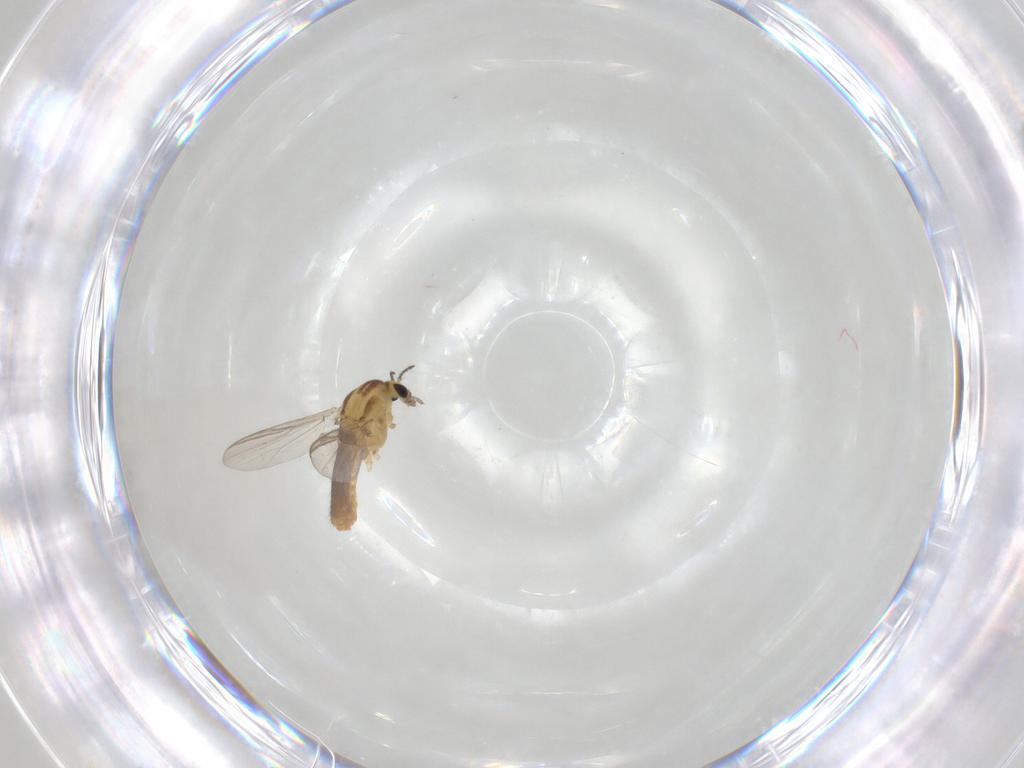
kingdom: Animalia
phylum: Arthropoda
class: Insecta
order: Diptera
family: Chironomidae
